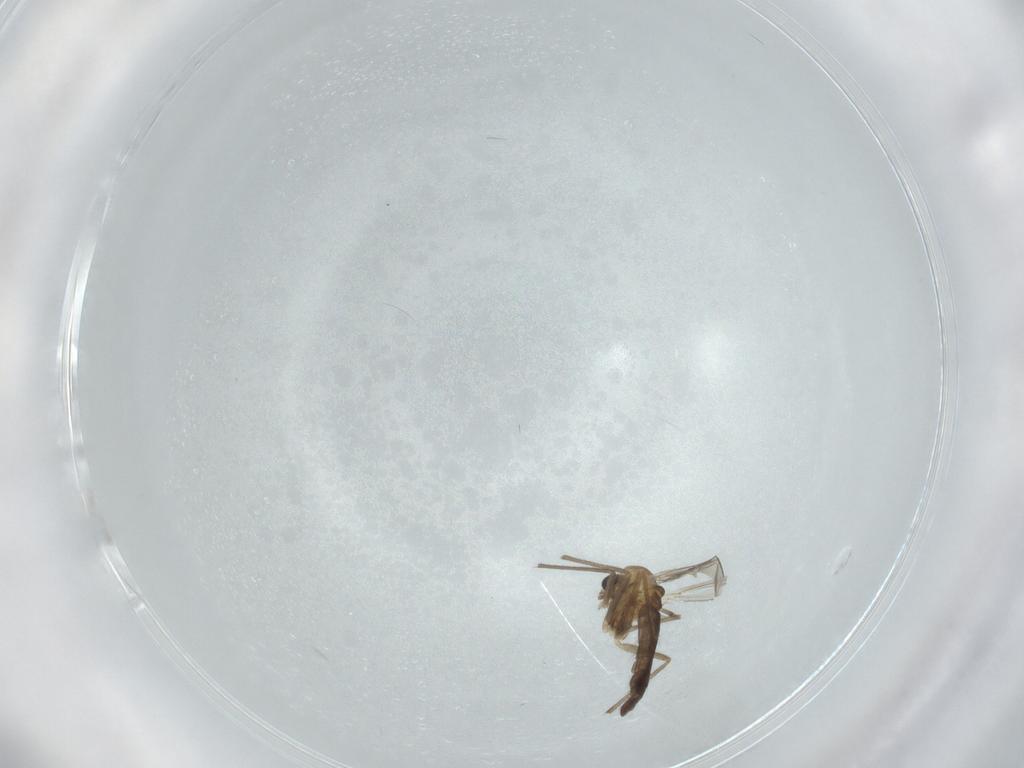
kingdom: Animalia
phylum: Arthropoda
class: Insecta
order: Diptera
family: Chironomidae
